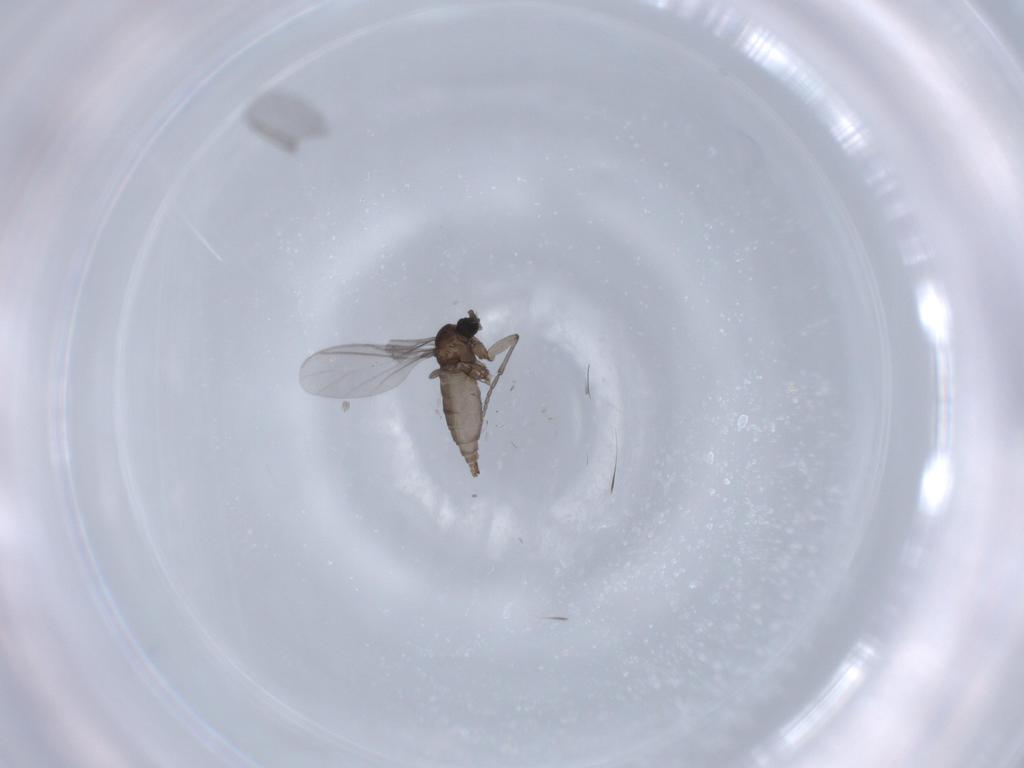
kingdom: Animalia
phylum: Arthropoda
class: Insecta
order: Diptera
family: Sciaridae
